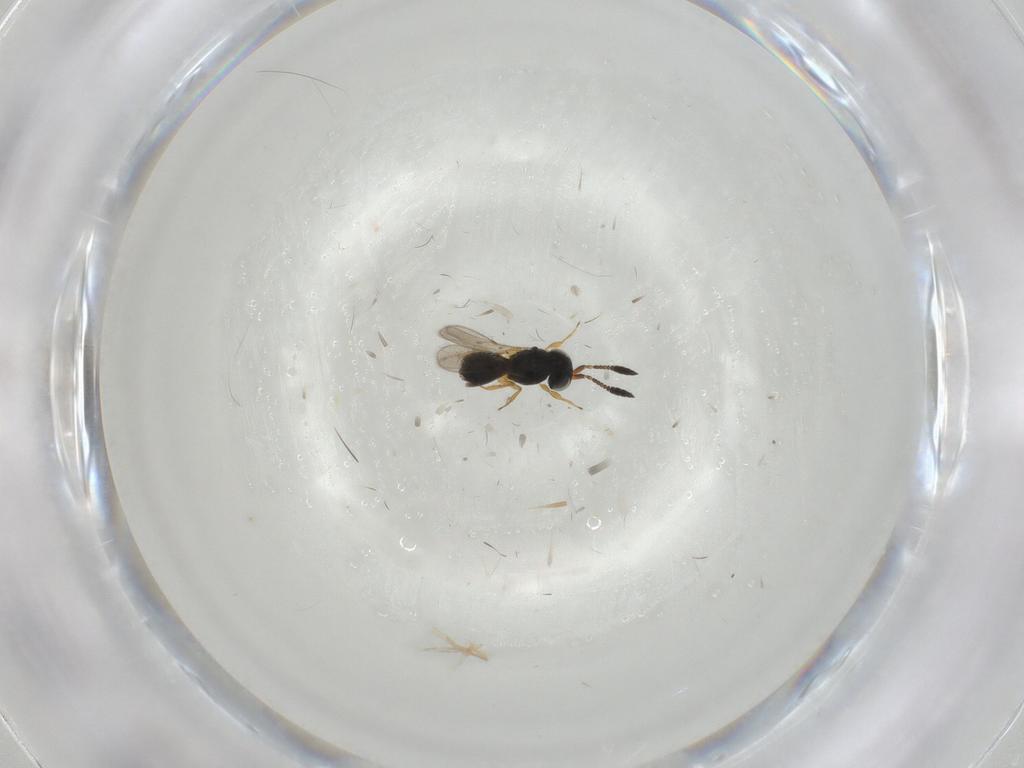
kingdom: Animalia
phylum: Arthropoda
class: Insecta
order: Hymenoptera
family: Scelionidae
